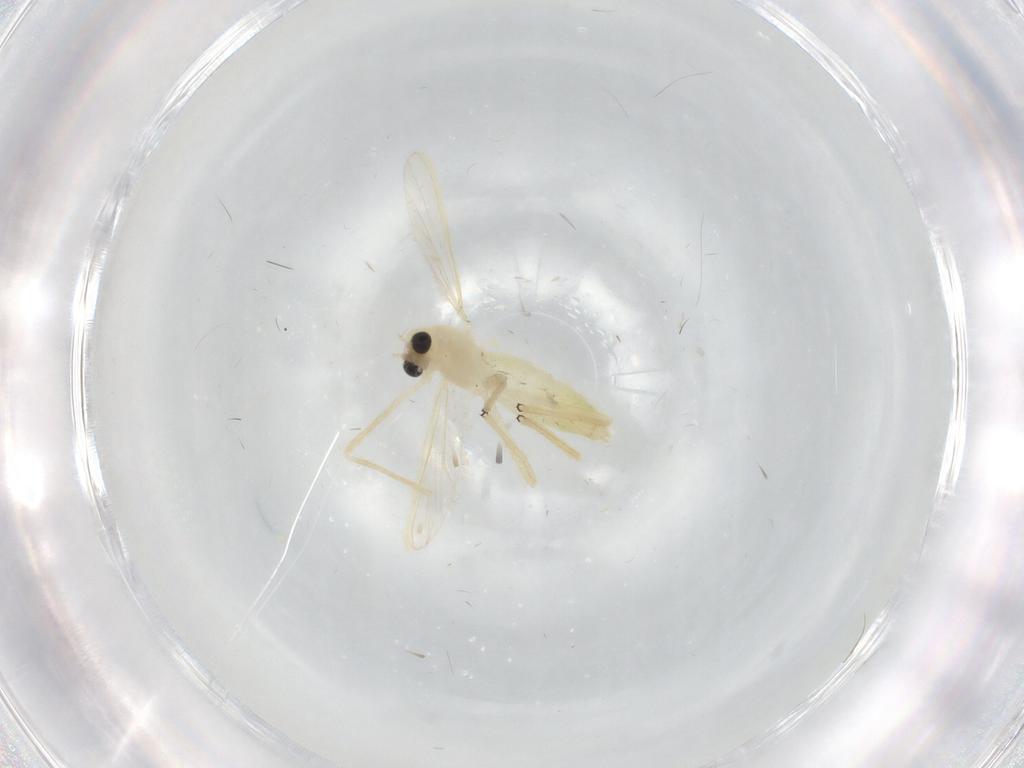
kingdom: Animalia
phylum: Arthropoda
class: Insecta
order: Diptera
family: Chironomidae
